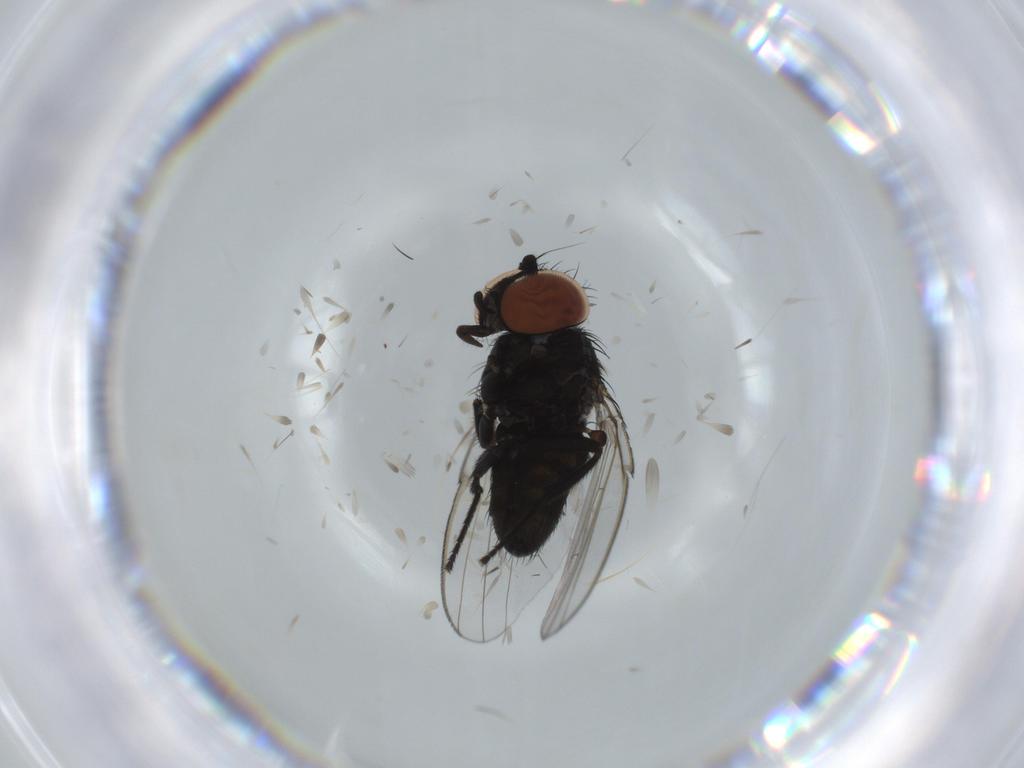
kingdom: Animalia
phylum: Arthropoda
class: Insecta
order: Diptera
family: Milichiidae
